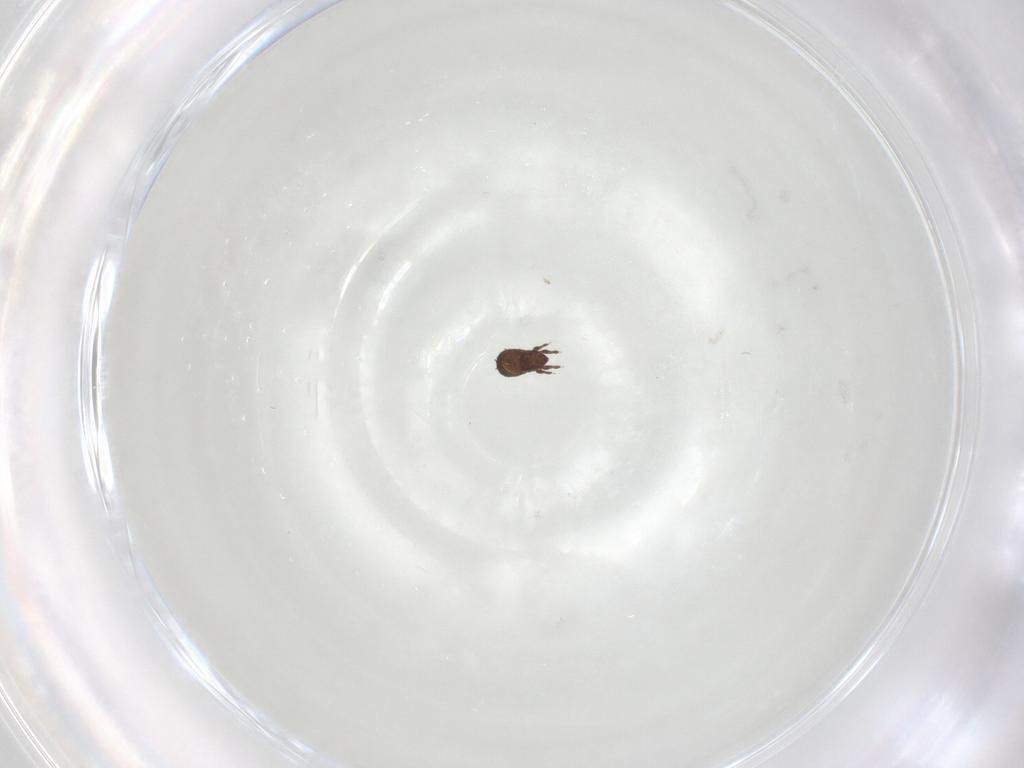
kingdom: Animalia
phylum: Arthropoda
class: Arachnida
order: Sarcoptiformes
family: Cymbaeremaeidae
